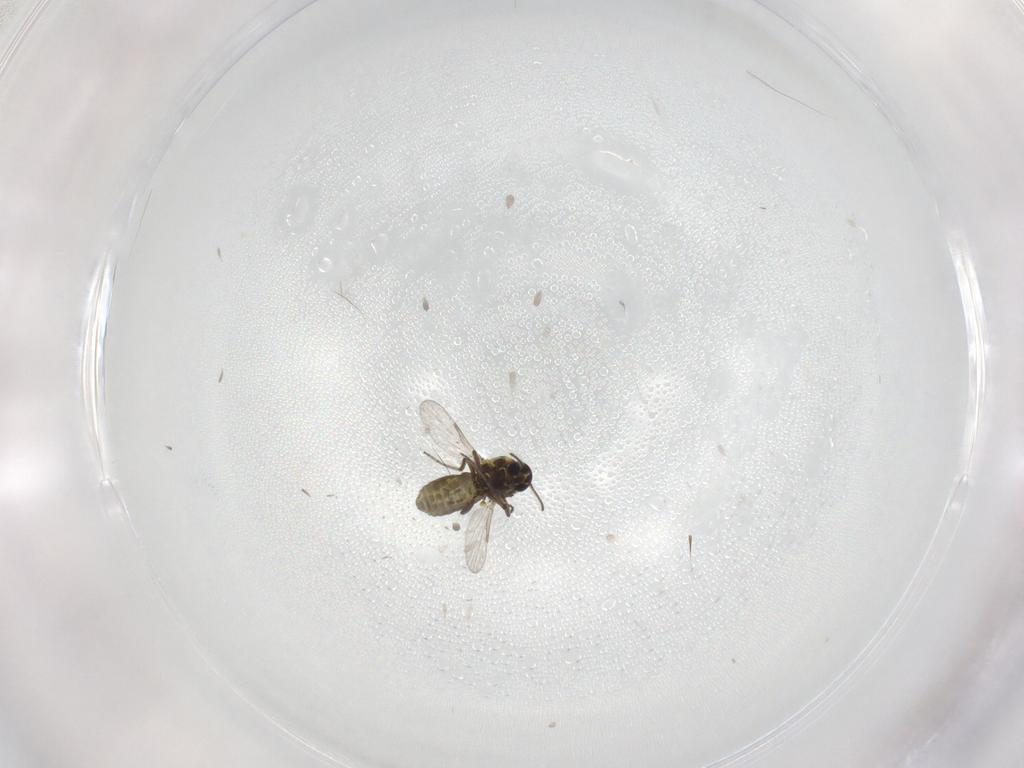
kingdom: Animalia
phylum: Arthropoda
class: Insecta
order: Diptera
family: Ceratopogonidae
